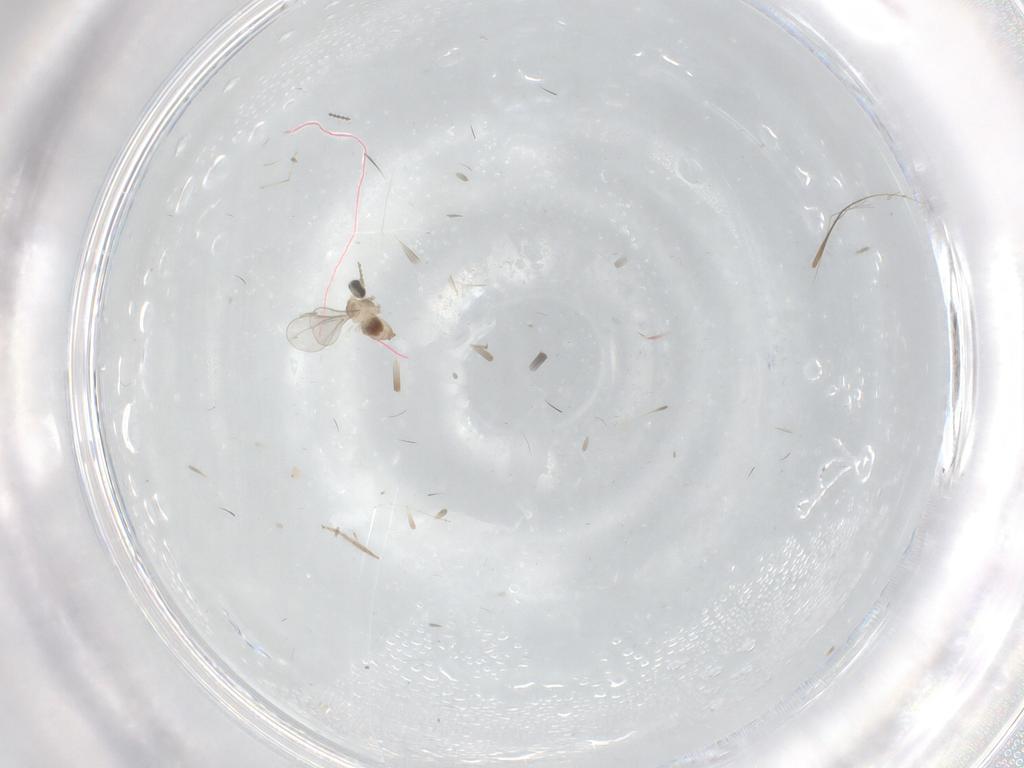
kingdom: Animalia
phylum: Arthropoda
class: Insecta
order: Diptera
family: Cecidomyiidae
